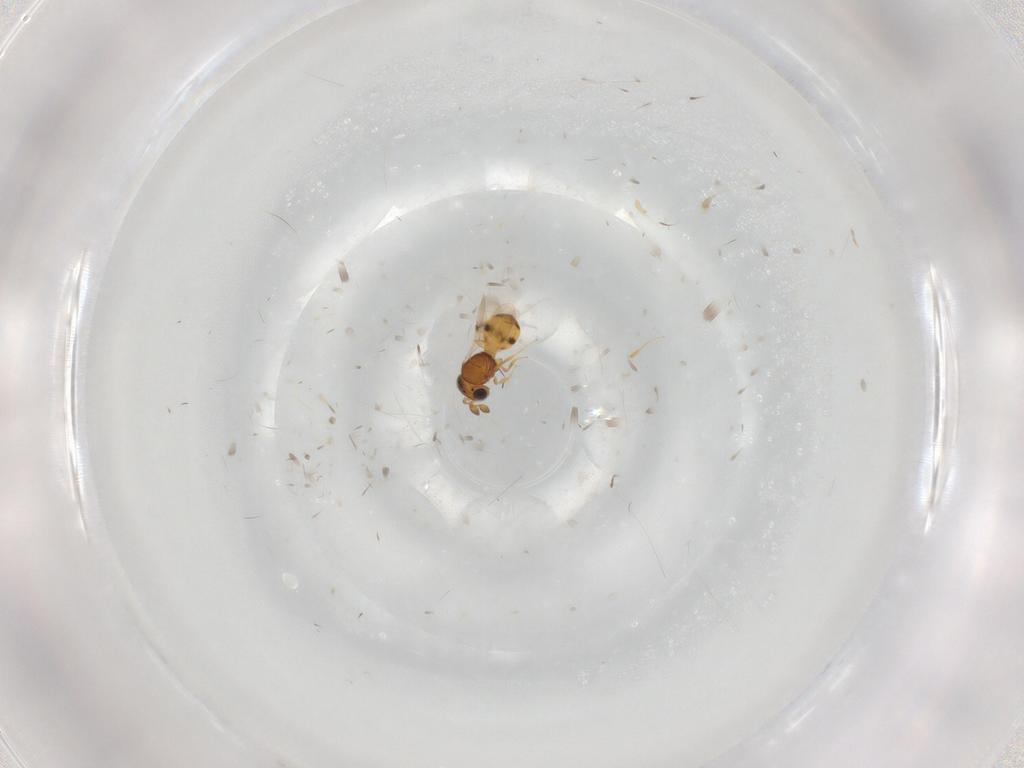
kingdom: Animalia
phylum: Arthropoda
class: Insecta
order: Hymenoptera
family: Scelionidae
